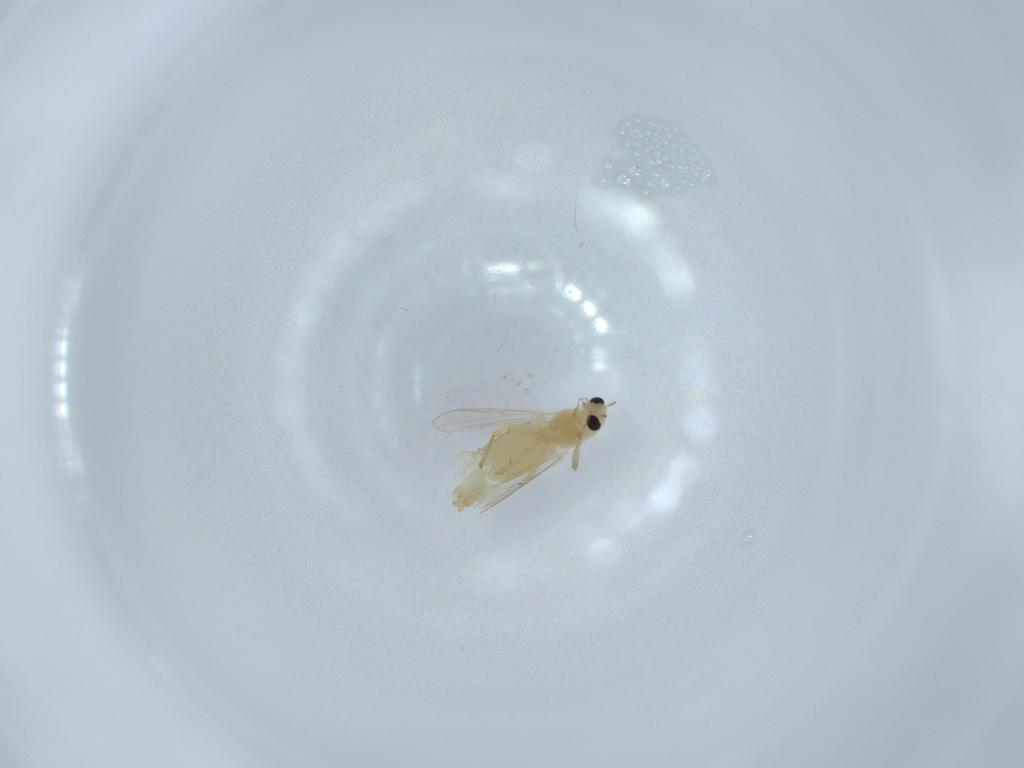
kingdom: Animalia
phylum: Arthropoda
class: Insecta
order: Diptera
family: Chironomidae
